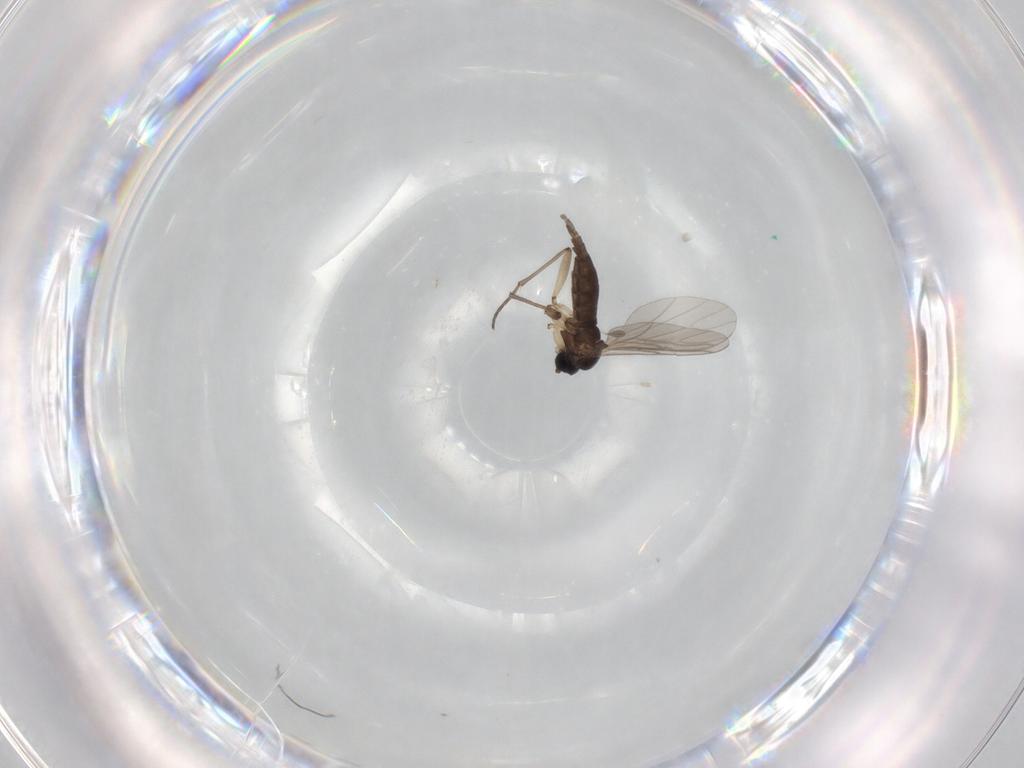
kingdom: Animalia
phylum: Arthropoda
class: Insecta
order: Diptera
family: Sciaridae
